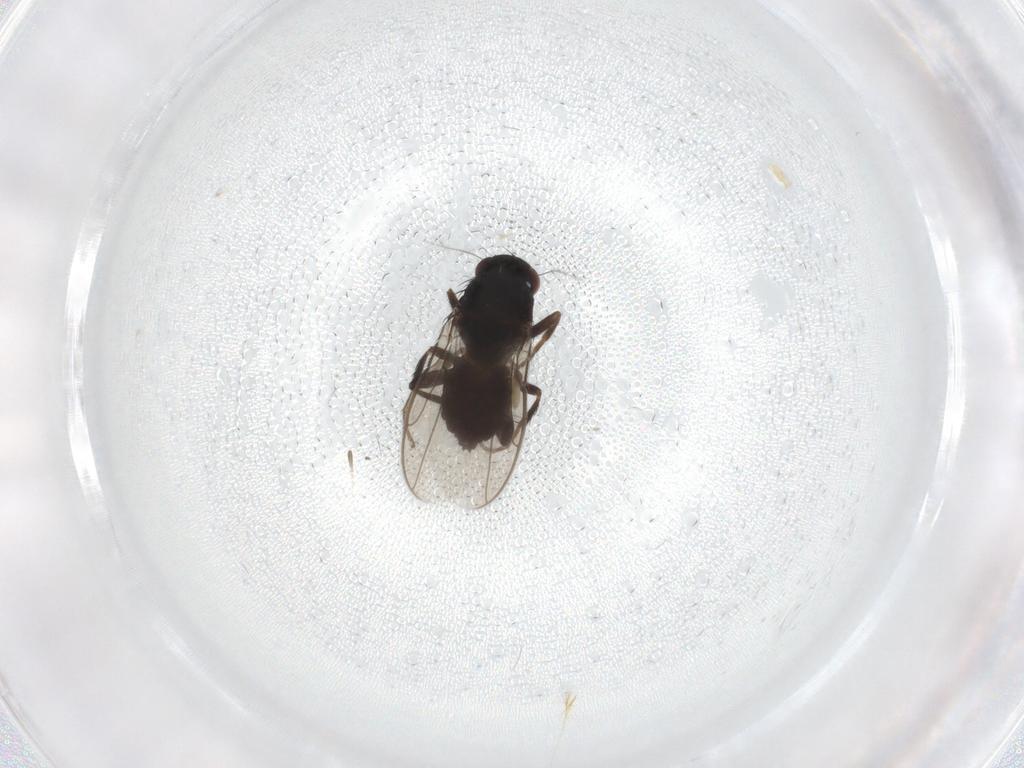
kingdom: Animalia
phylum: Arthropoda
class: Insecta
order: Diptera
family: Sphaeroceridae
